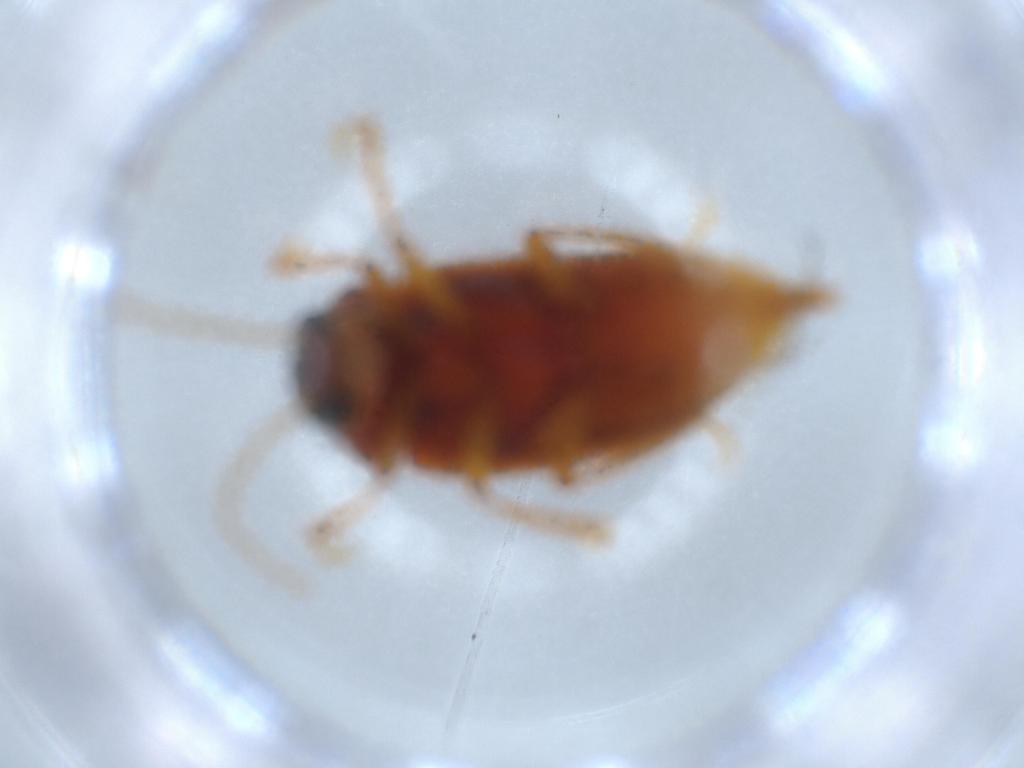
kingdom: Animalia
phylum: Arthropoda
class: Insecta
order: Coleoptera
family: Ptilodactylidae
